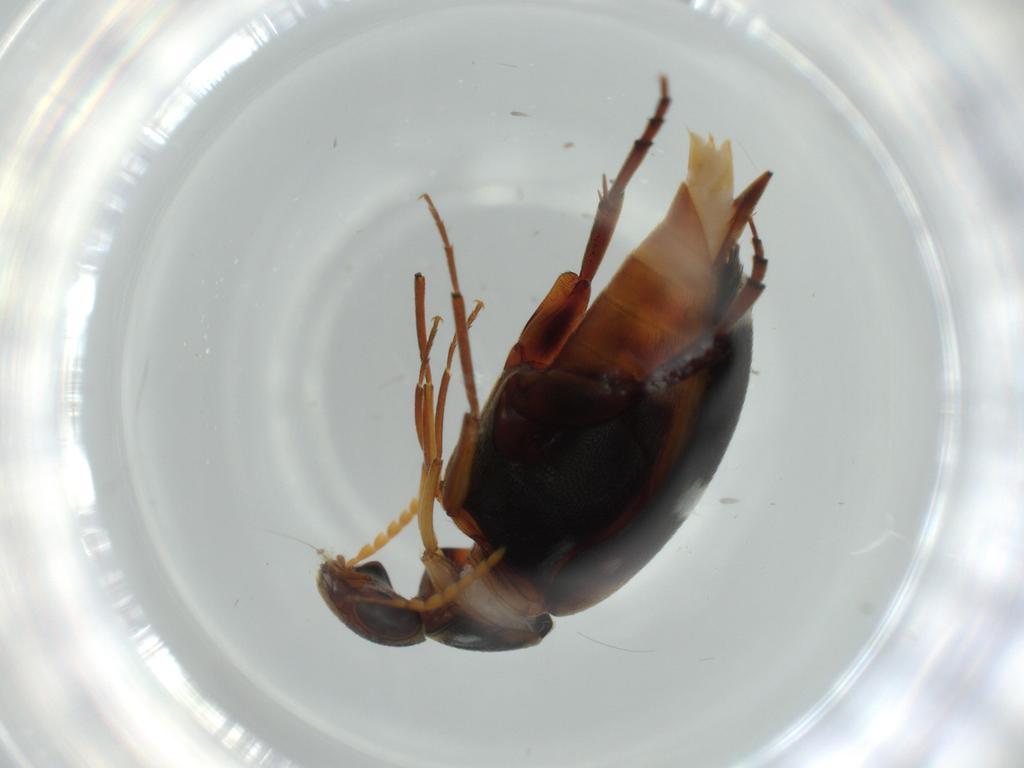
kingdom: Animalia
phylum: Arthropoda
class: Insecta
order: Coleoptera
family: Mordellidae
